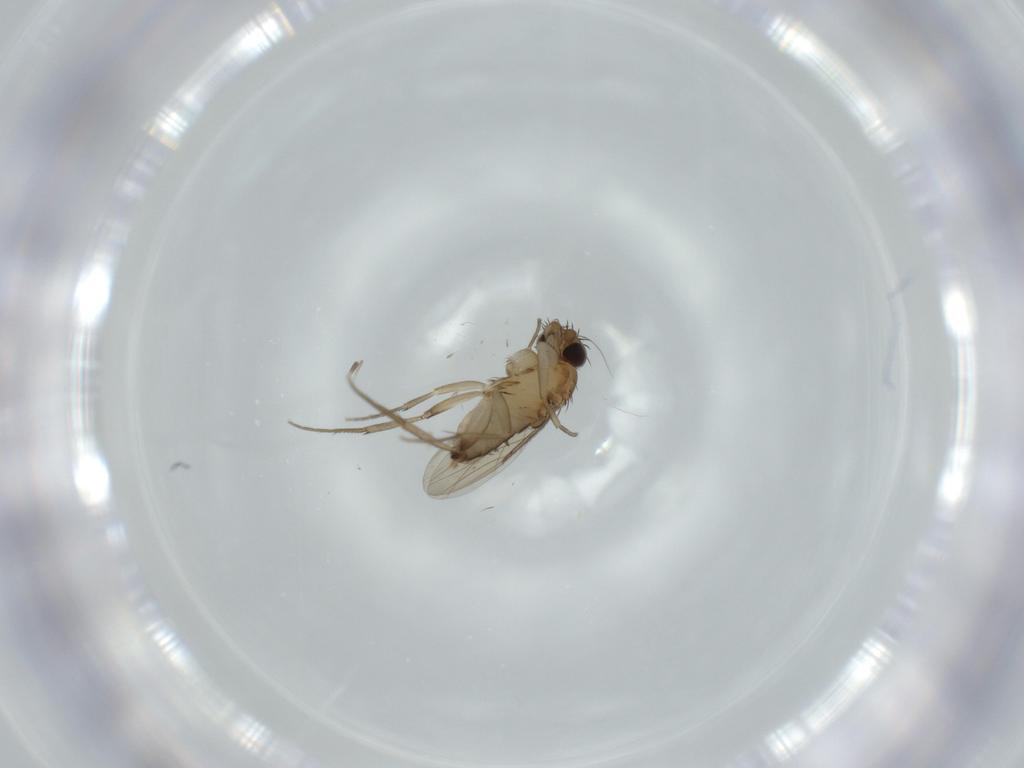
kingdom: Animalia
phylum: Arthropoda
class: Insecta
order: Diptera
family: Phoridae
